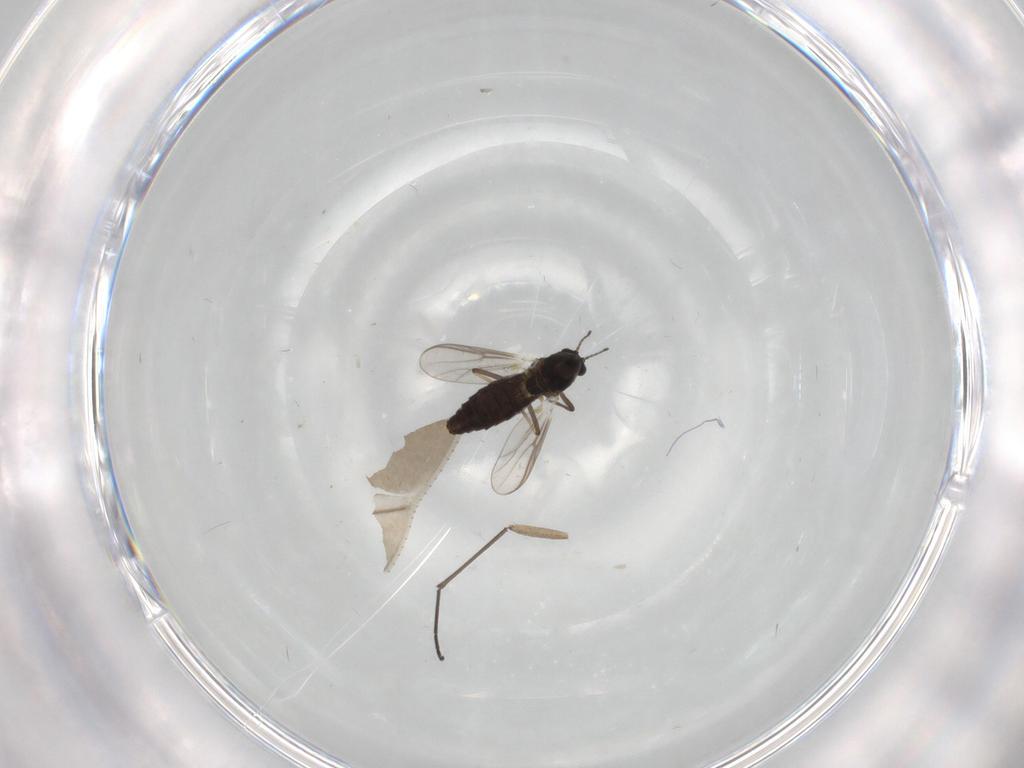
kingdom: Animalia
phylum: Arthropoda
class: Insecta
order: Diptera
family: Sciaridae
